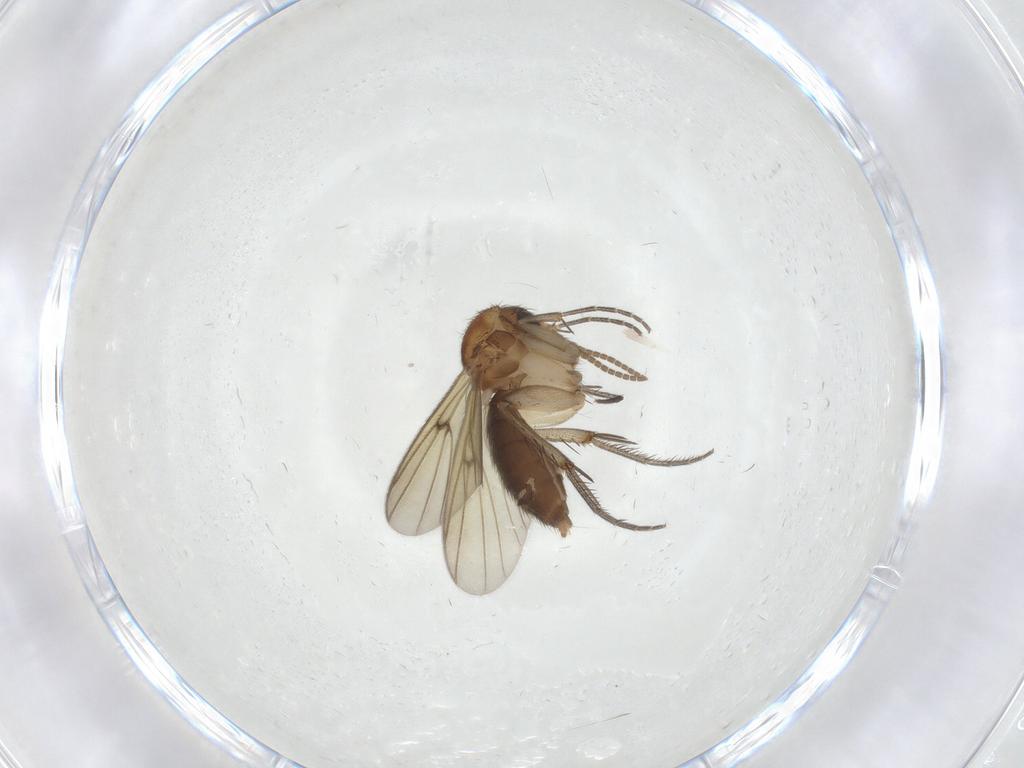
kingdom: Animalia
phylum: Arthropoda
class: Insecta
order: Diptera
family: Mycetophilidae
